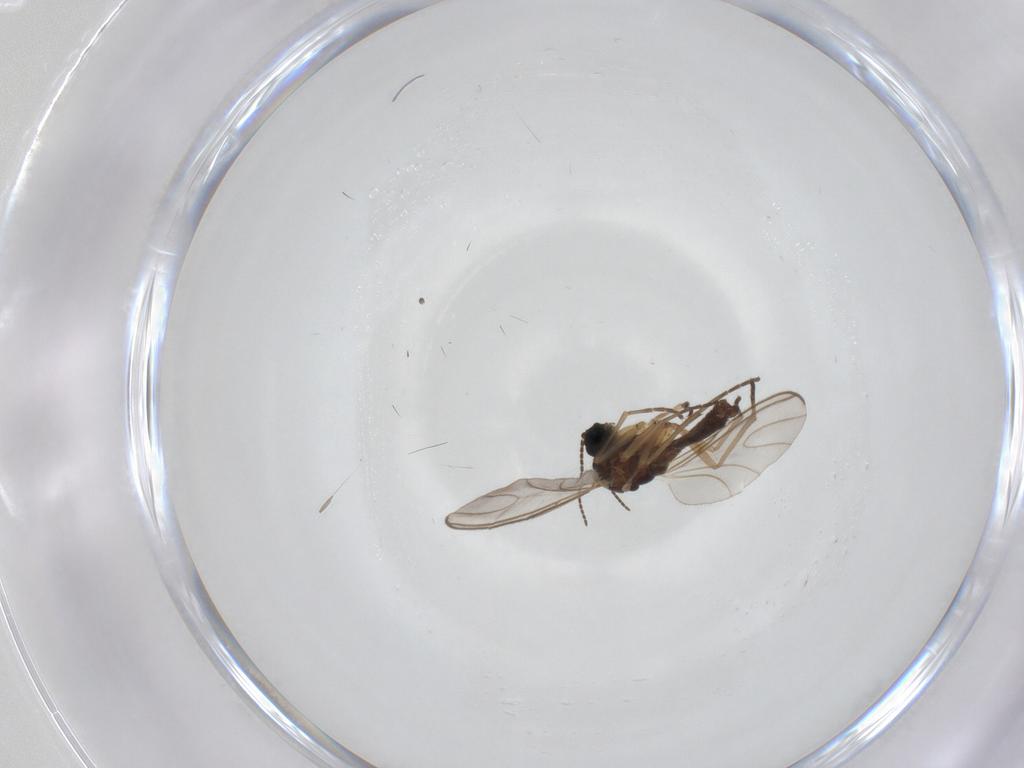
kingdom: Animalia
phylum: Arthropoda
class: Insecta
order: Diptera
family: Sciaridae
